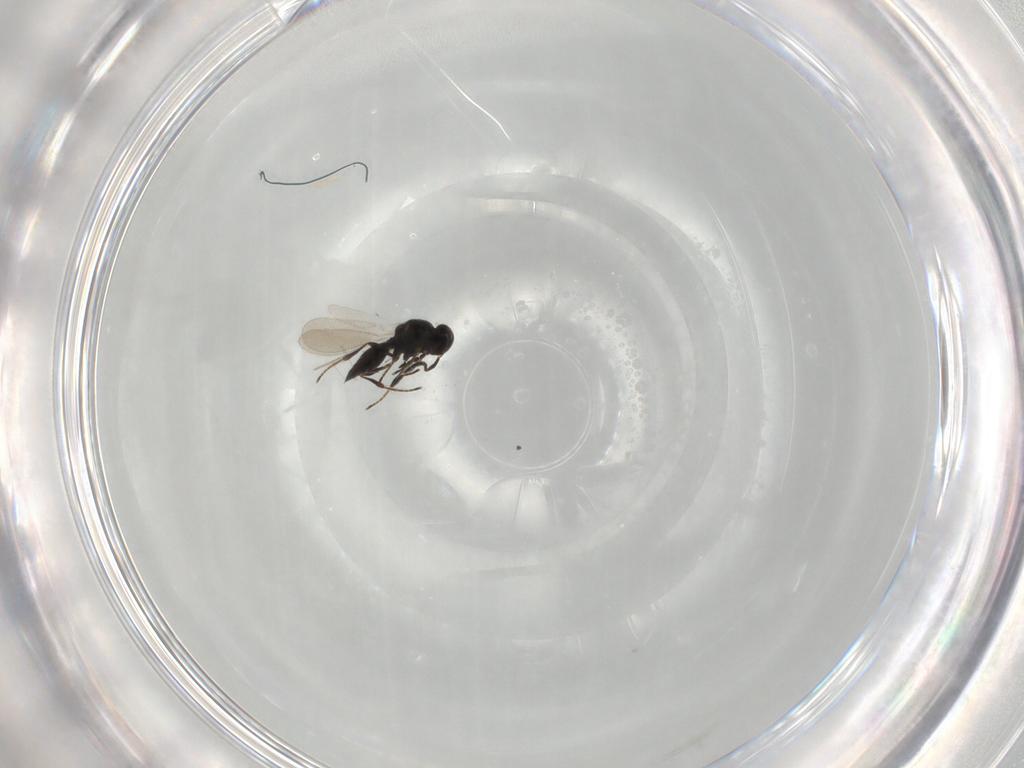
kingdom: Animalia
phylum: Arthropoda
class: Insecta
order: Hymenoptera
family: Platygastridae
